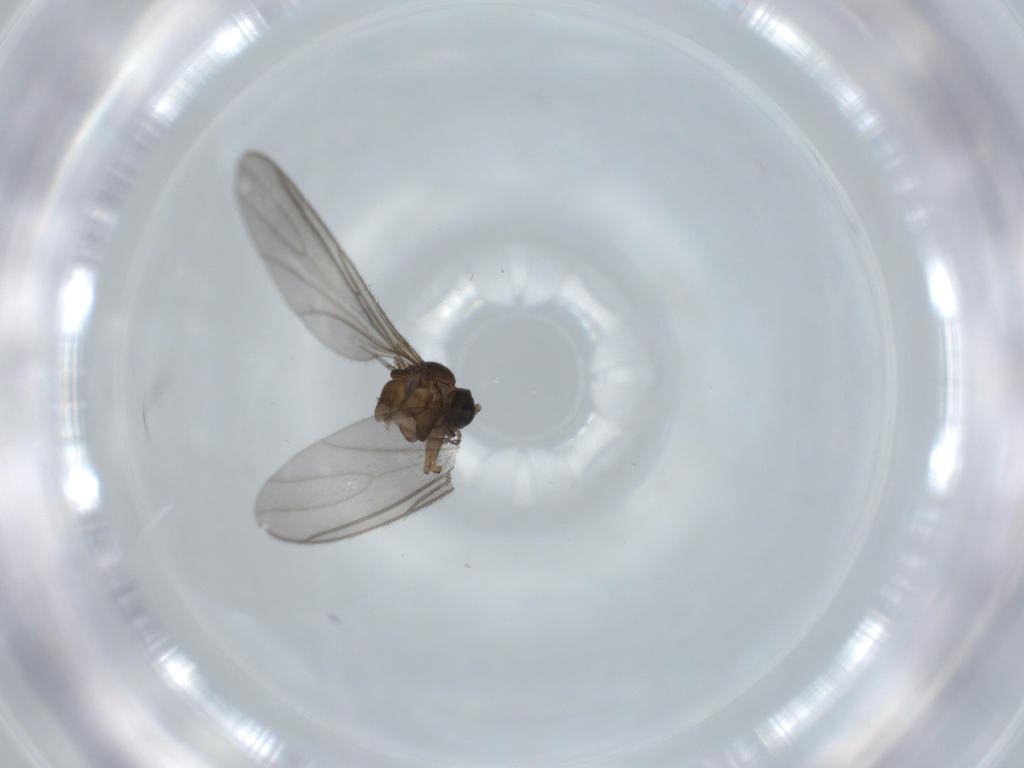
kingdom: Animalia
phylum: Arthropoda
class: Insecta
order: Diptera
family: Sciaridae
